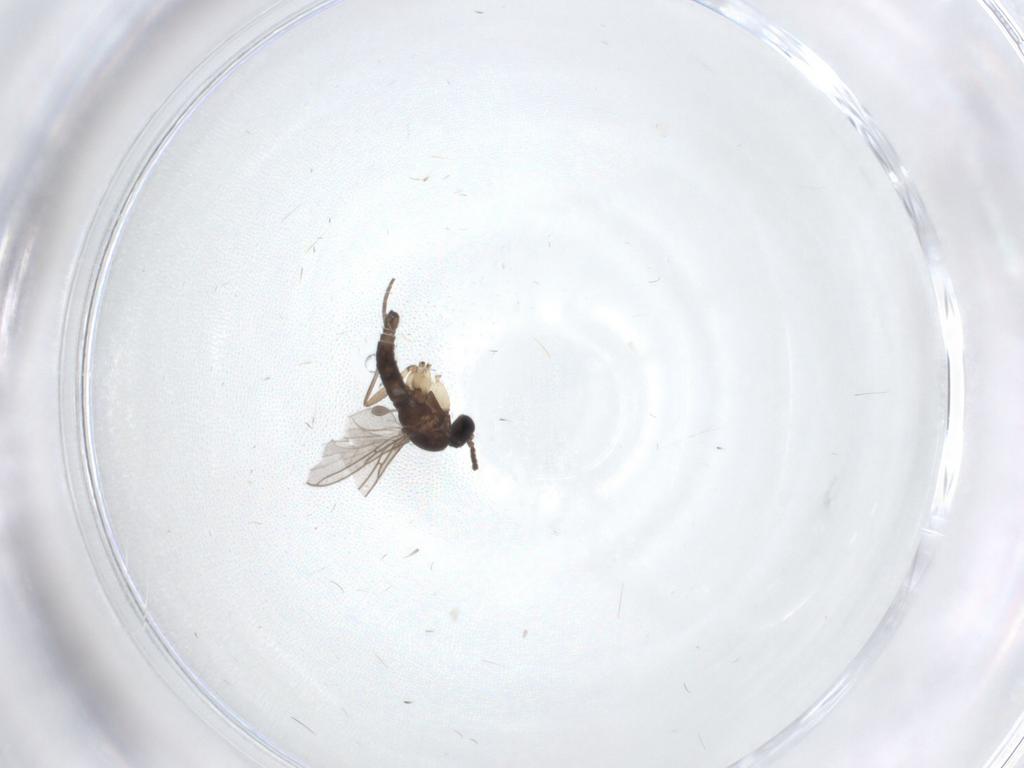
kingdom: Animalia
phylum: Arthropoda
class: Insecta
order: Diptera
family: Sciaridae
